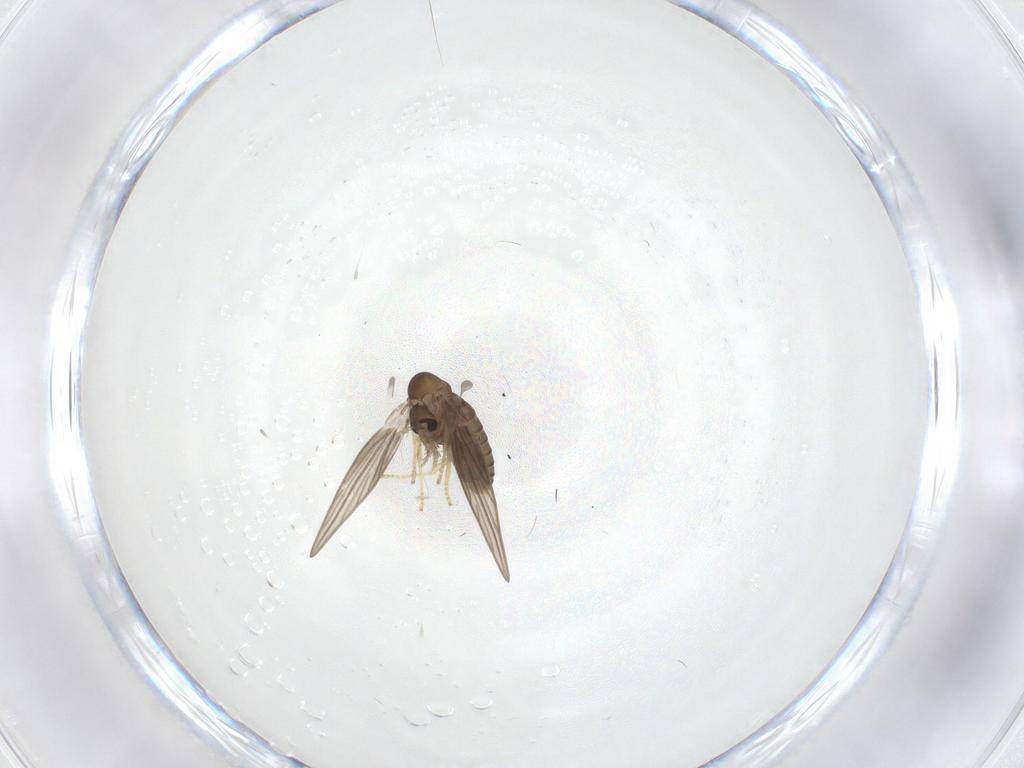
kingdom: Animalia
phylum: Arthropoda
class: Insecta
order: Diptera
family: Psychodidae
